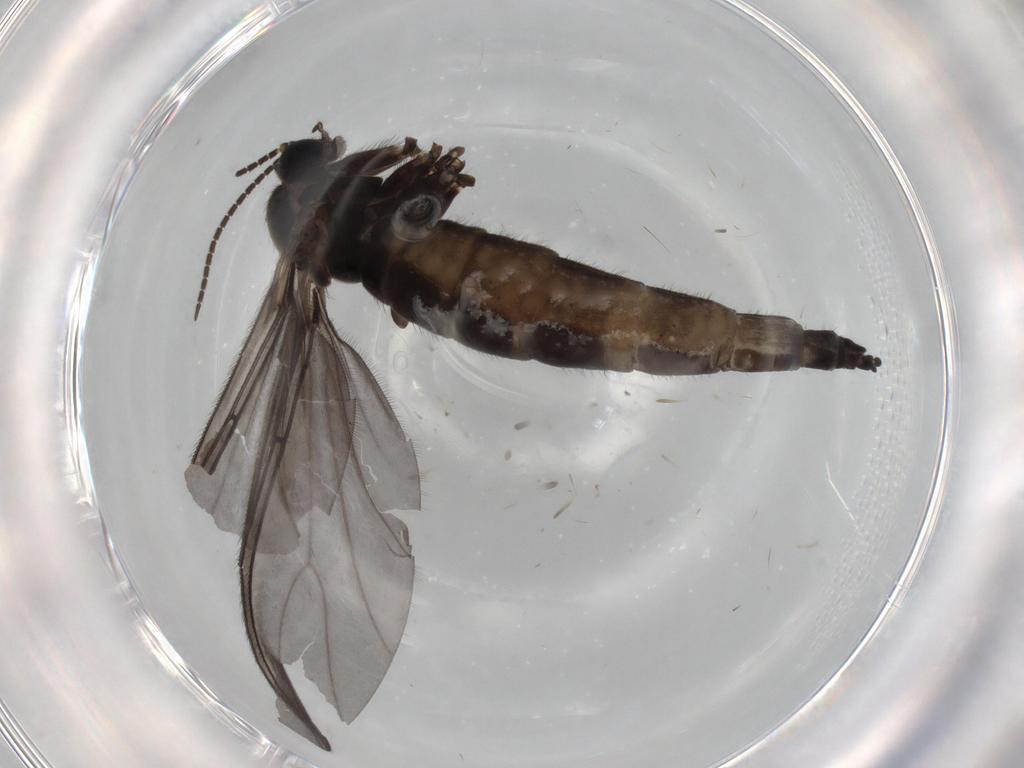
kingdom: Animalia
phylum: Arthropoda
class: Insecta
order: Diptera
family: Sciaridae
